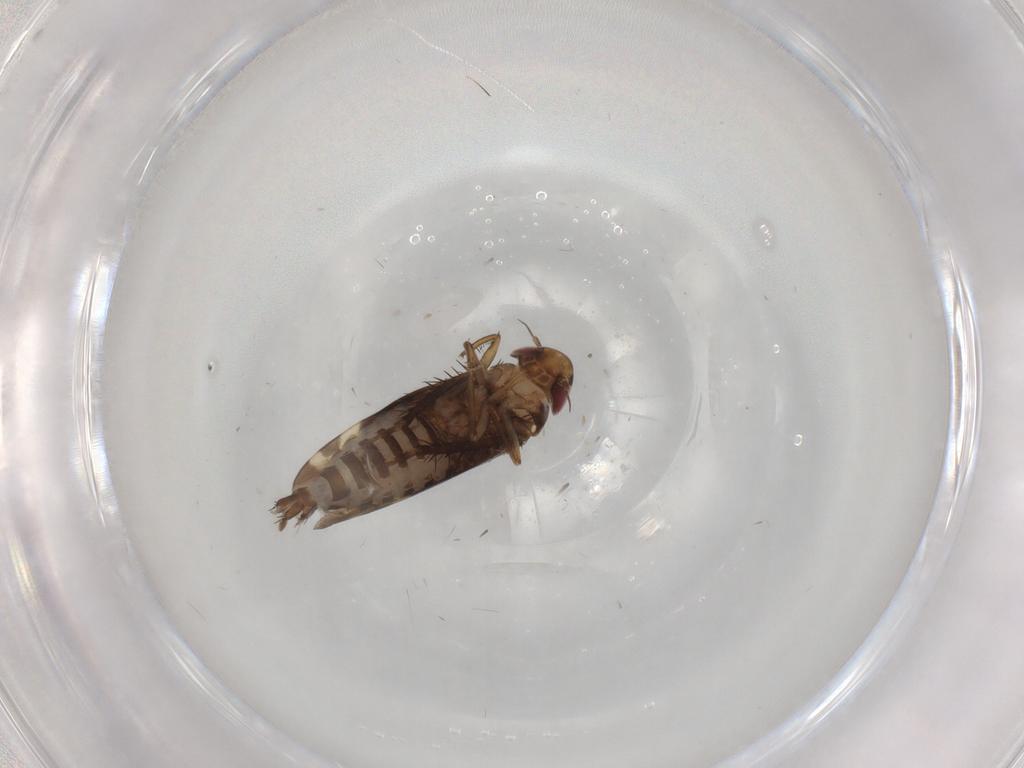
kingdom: Animalia
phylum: Arthropoda
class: Insecta
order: Hemiptera
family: Cicadellidae
